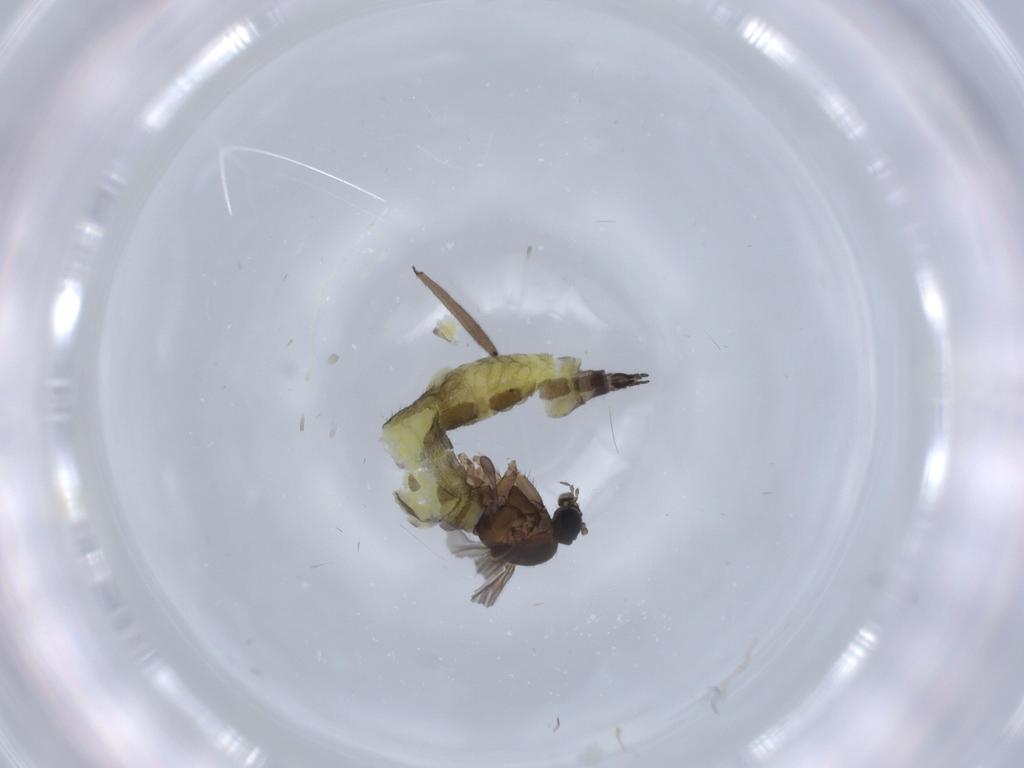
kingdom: Animalia
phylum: Arthropoda
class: Insecta
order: Diptera
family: Sciaridae
